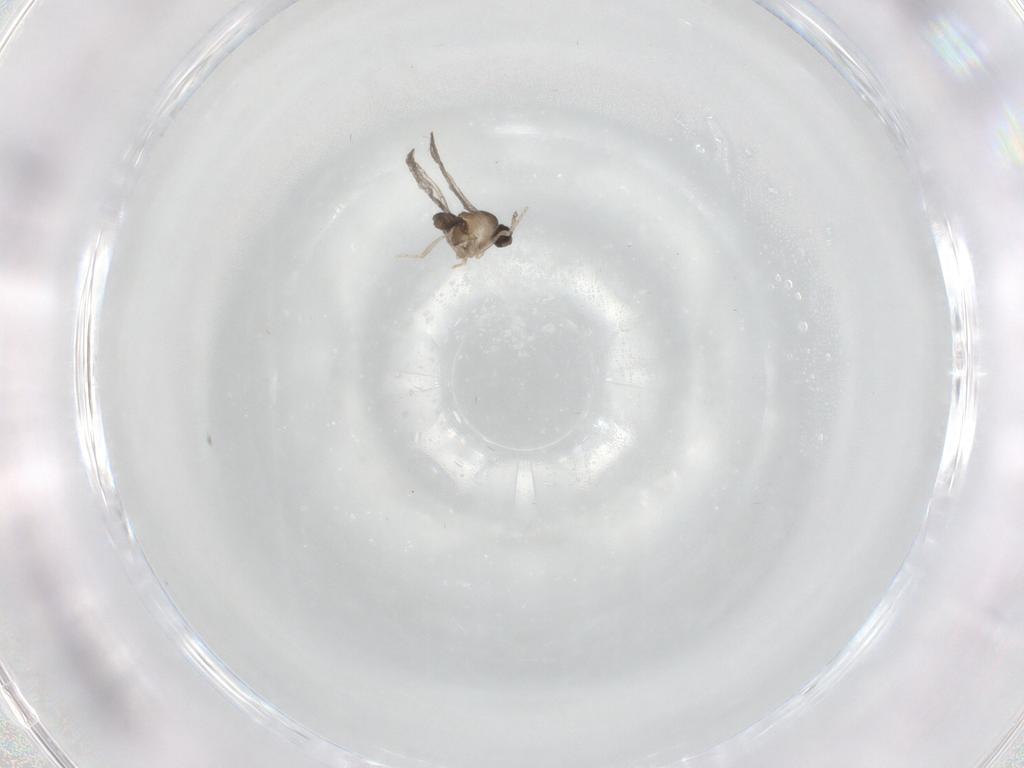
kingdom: Animalia
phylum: Arthropoda
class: Insecta
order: Diptera
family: Cecidomyiidae
